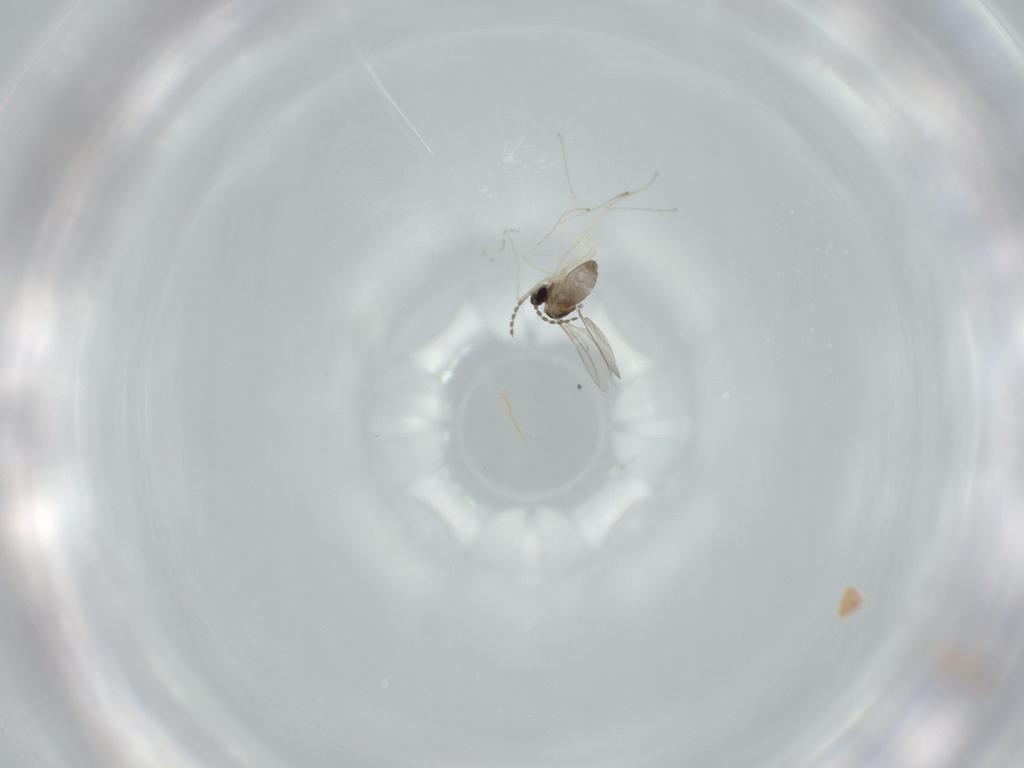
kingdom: Animalia
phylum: Arthropoda
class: Insecta
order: Diptera
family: Cecidomyiidae
